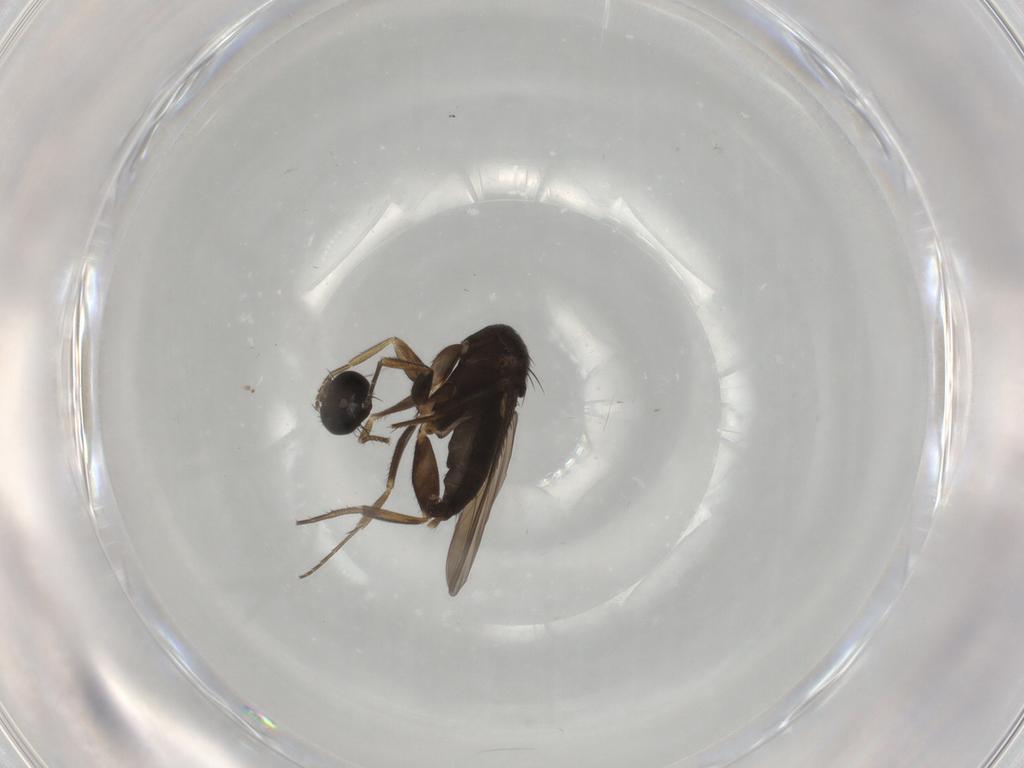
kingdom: Animalia
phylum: Arthropoda
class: Insecta
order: Diptera
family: Phoridae
